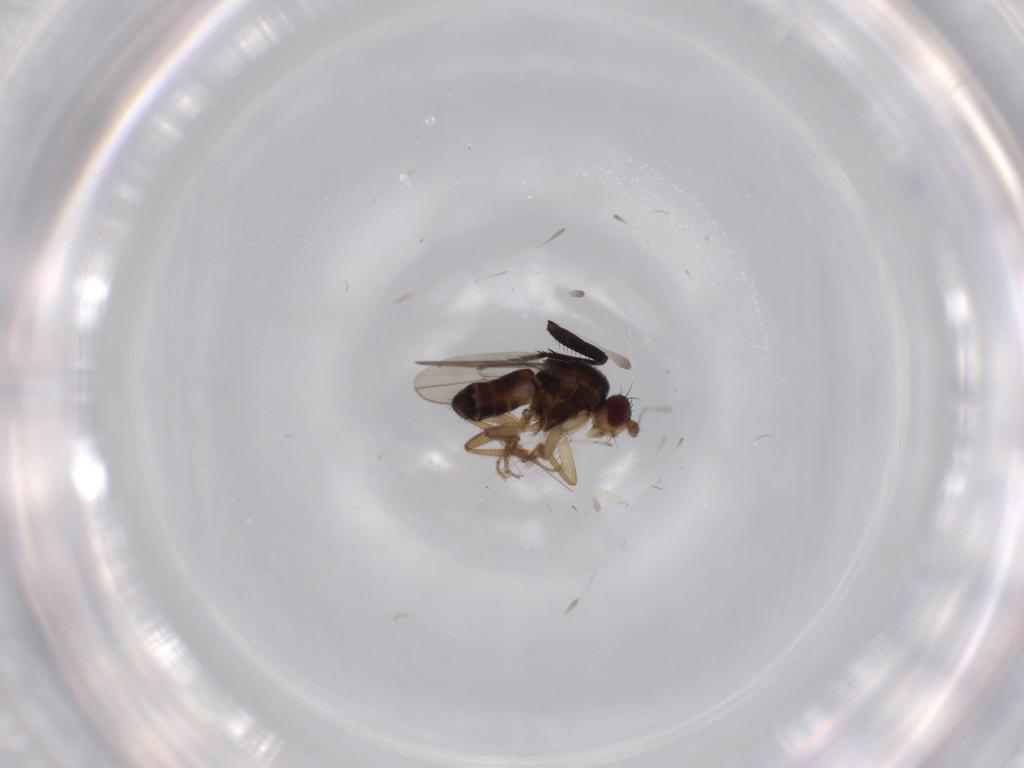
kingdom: Animalia
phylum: Arthropoda
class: Insecta
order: Diptera
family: Sphaeroceridae
